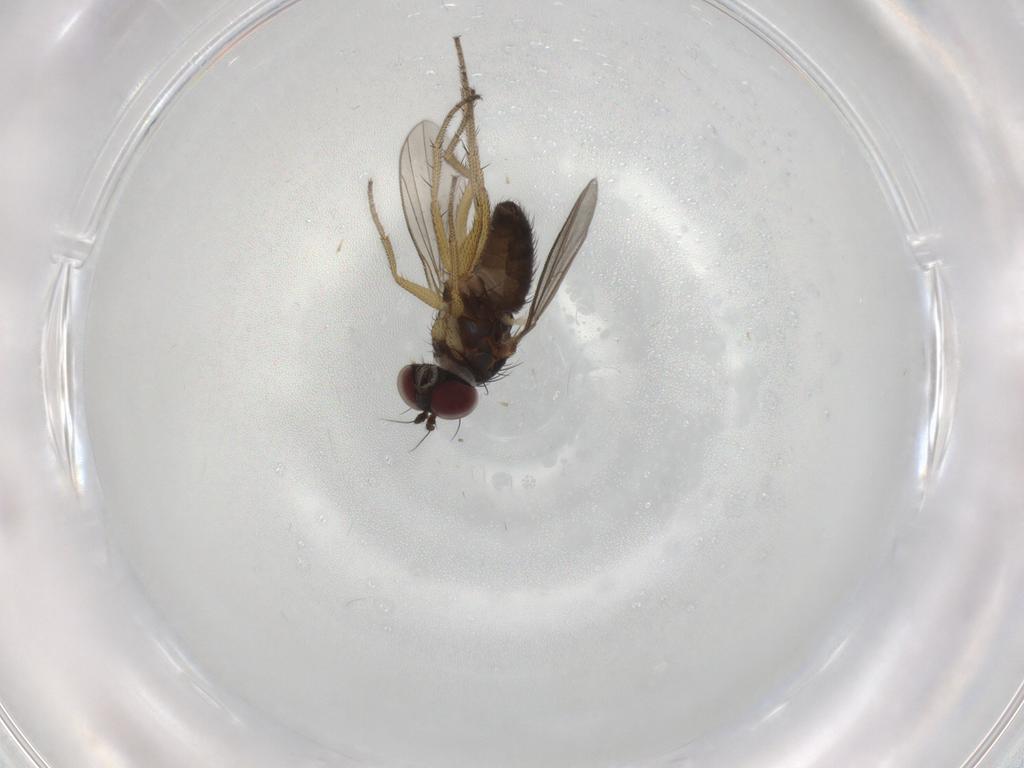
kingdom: Animalia
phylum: Arthropoda
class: Insecta
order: Diptera
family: Dolichopodidae
